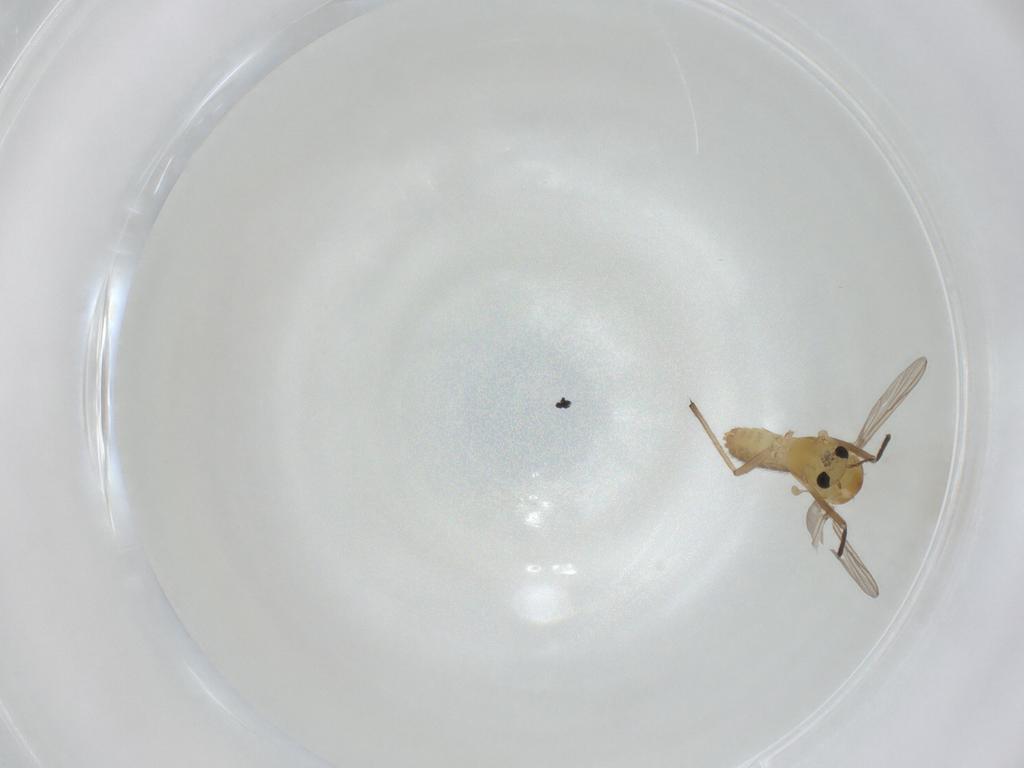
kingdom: Animalia
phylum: Arthropoda
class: Insecta
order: Diptera
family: Chironomidae
